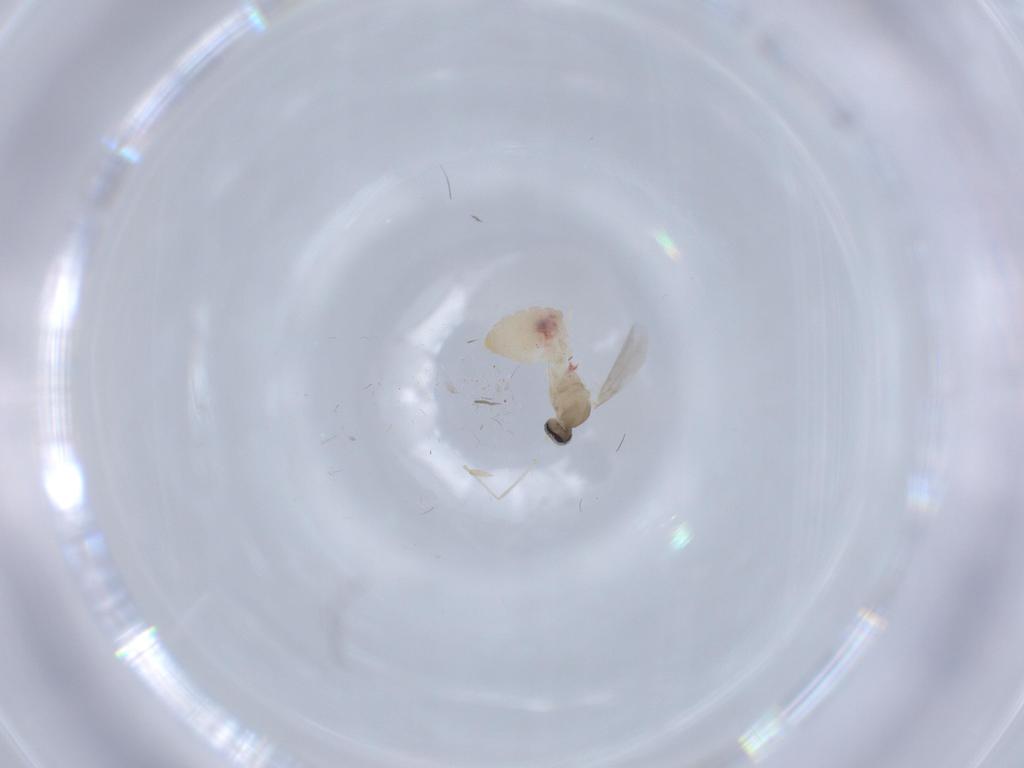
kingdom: Animalia
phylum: Arthropoda
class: Insecta
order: Diptera
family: Cecidomyiidae
